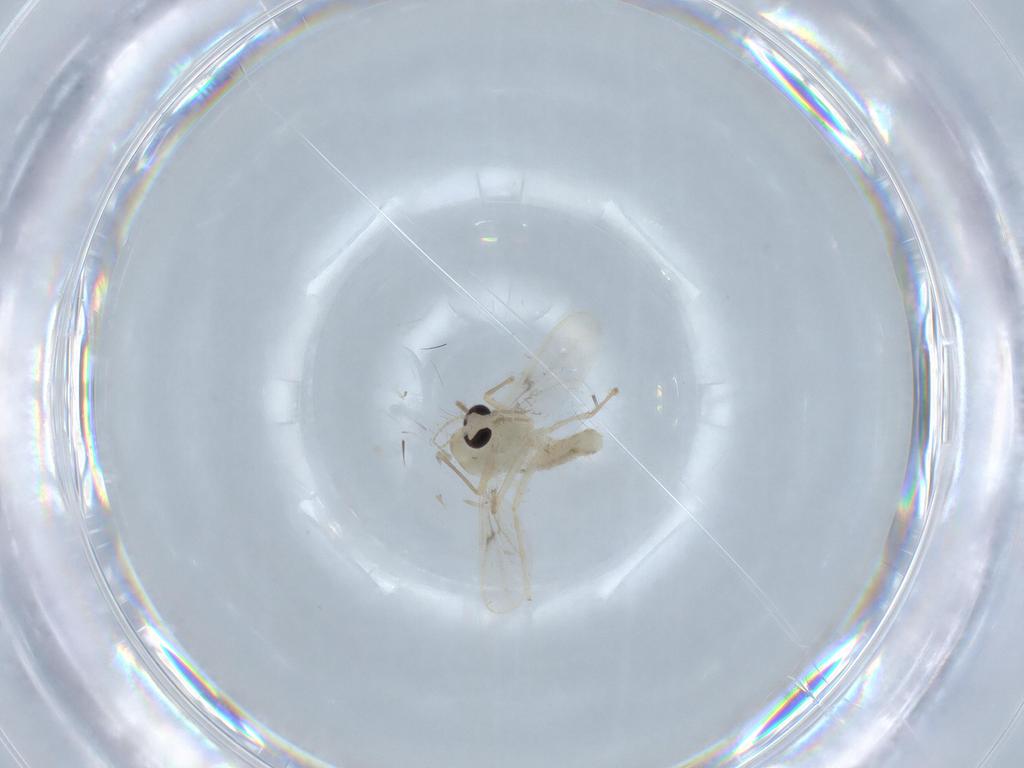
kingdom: Animalia
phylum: Arthropoda
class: Insecta
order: Diptera
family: Chironomidae
